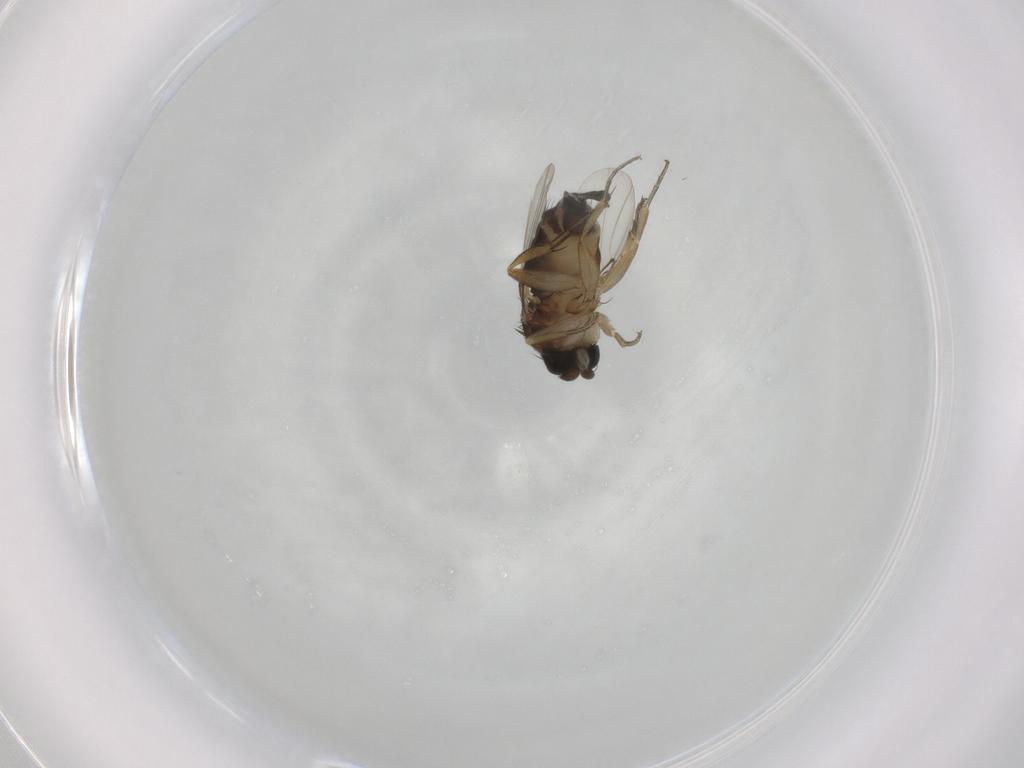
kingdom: Animalia
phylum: Arthropoda
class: Insecta
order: Diptera
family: Phoridae
